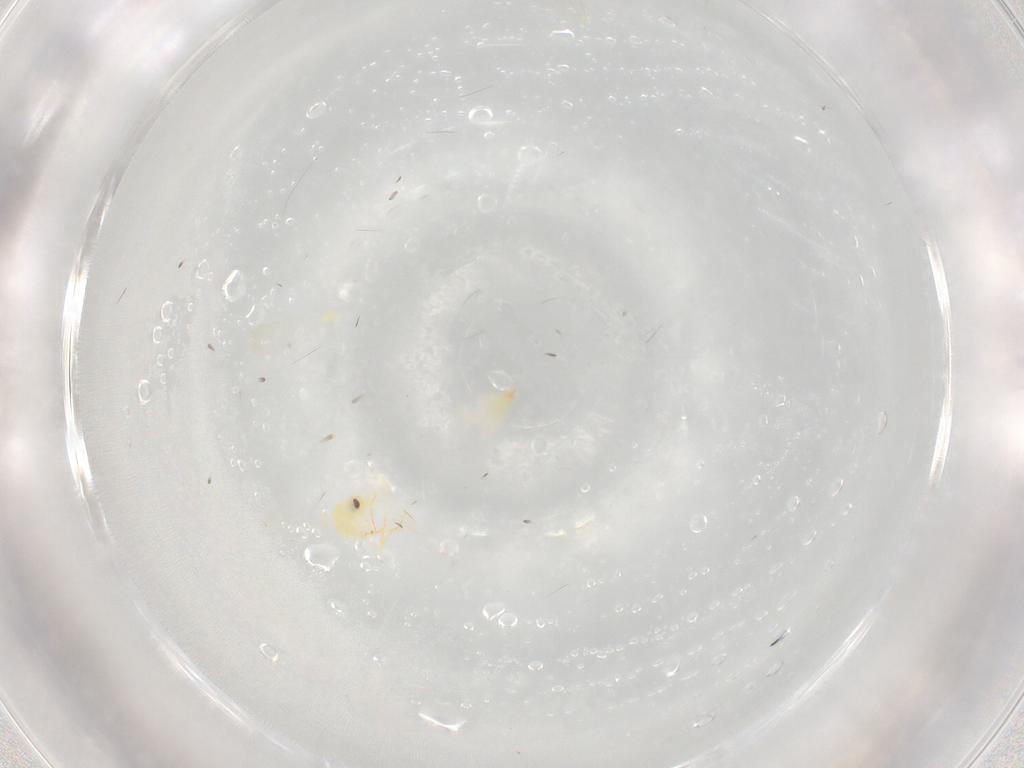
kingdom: Animalia
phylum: Arthropoda
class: Insecta
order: Hemiptera
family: Aleyrodidae
